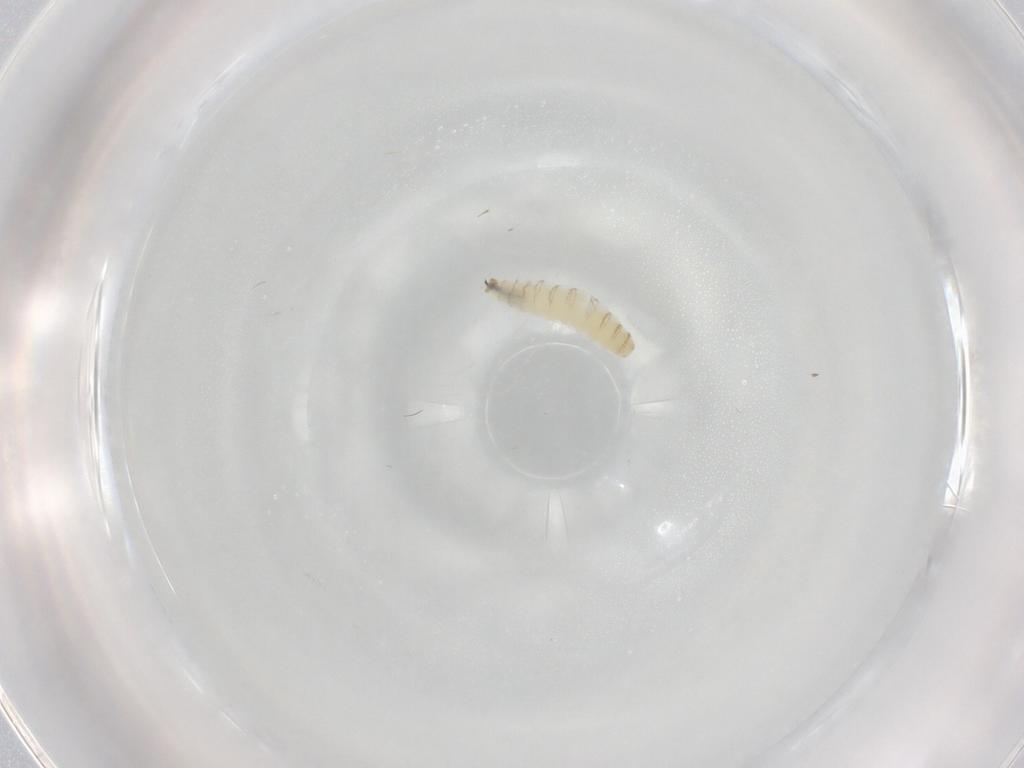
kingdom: Animalia
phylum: Arthropoda
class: Insecta
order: Diptera
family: Sarcophagidae
